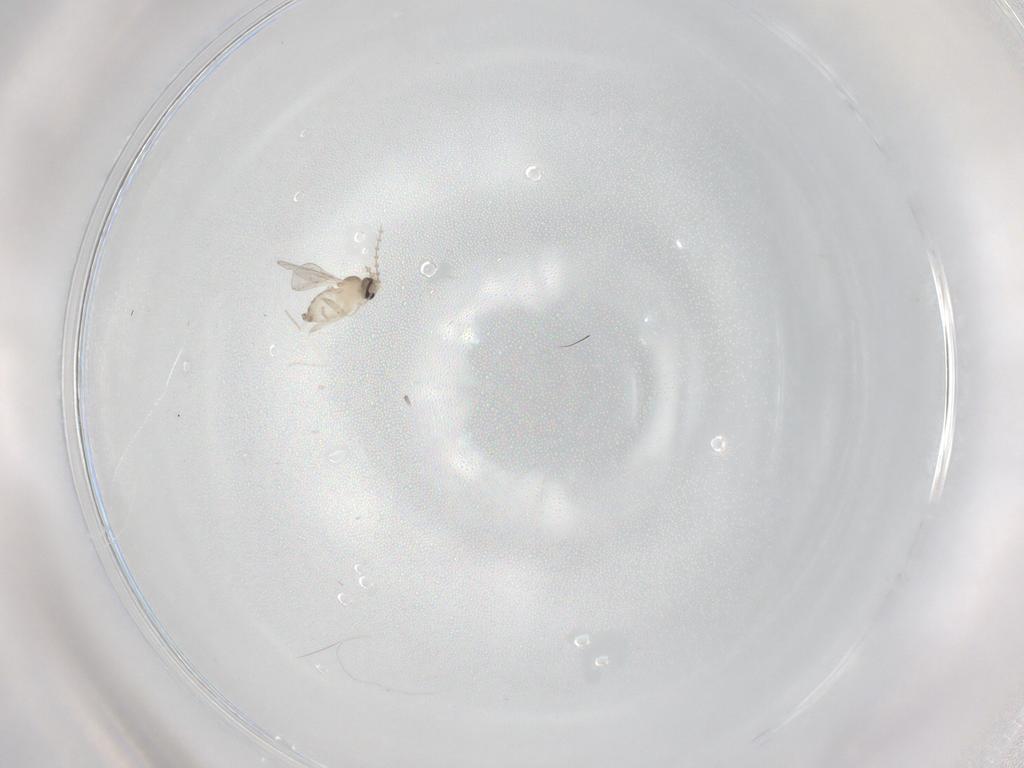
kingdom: Animalia
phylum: Arthropoda
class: Insecta
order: Diptera
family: Cecidomyiidae
